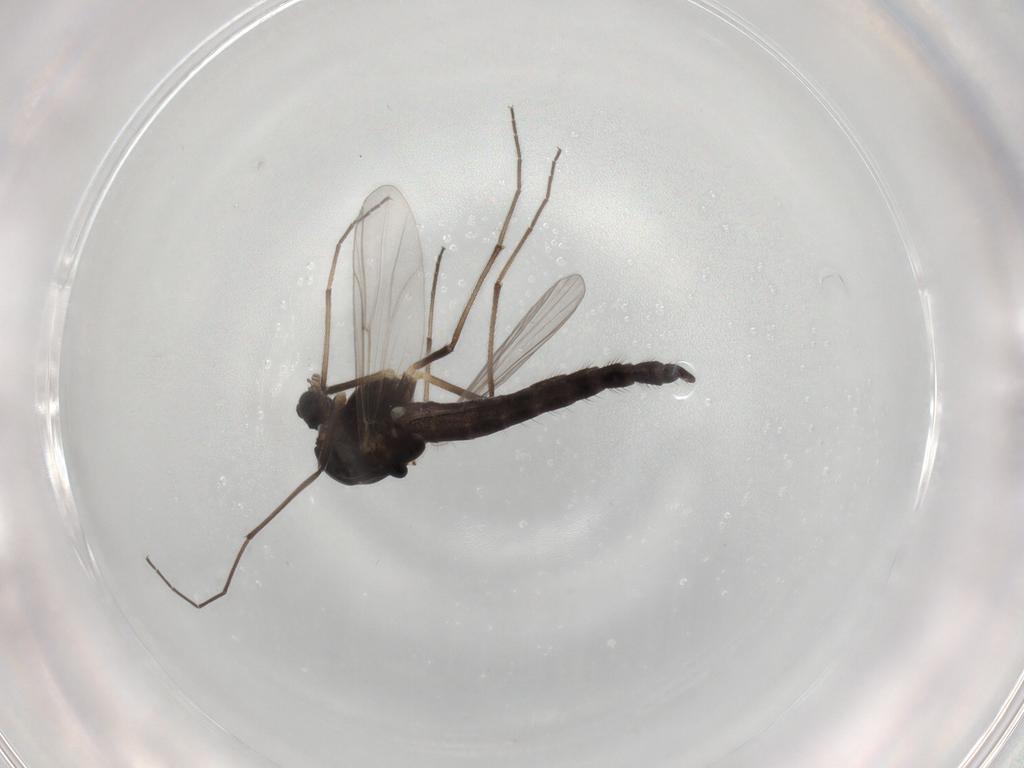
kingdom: Animalia
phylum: Arthropoda
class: Insecta
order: Diptera
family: Chironomidae
